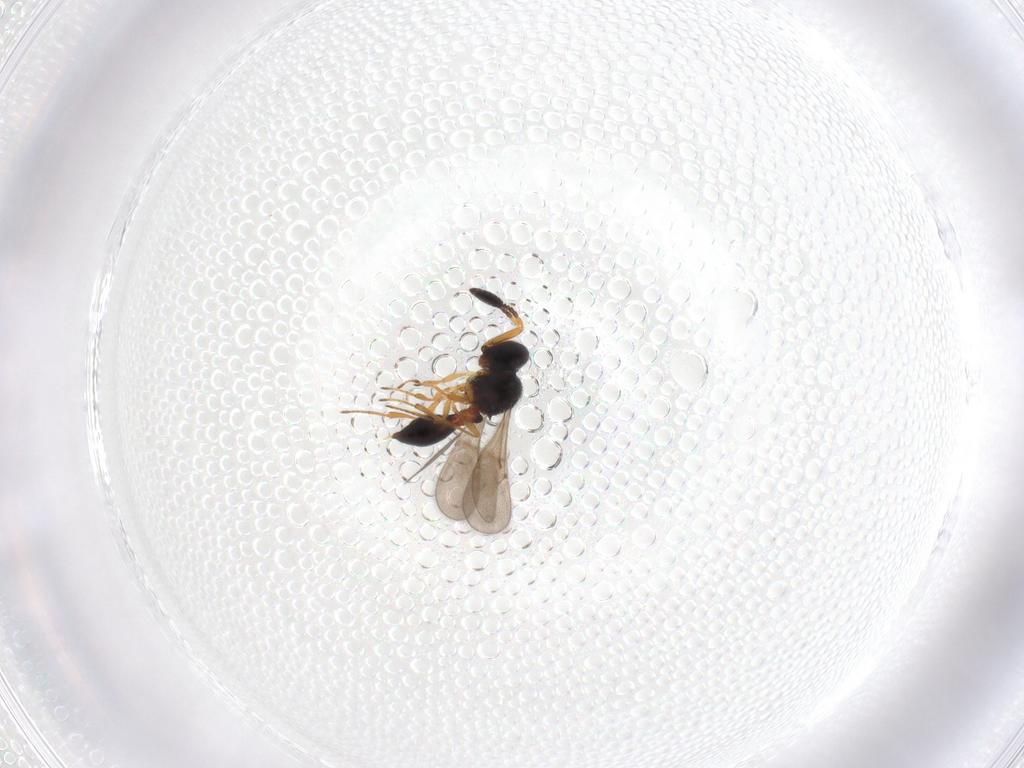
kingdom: Animalia
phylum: Arthropoda
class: Insecta
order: Hymenoptera
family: Scelionidae
